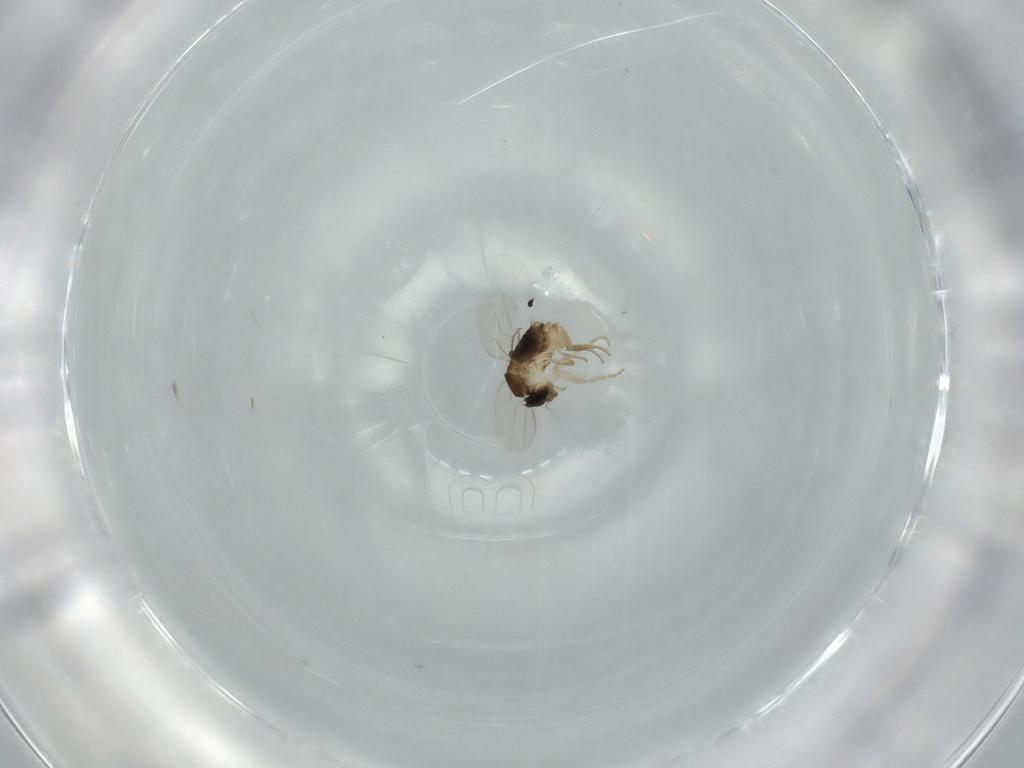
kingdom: Animalia
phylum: Arthropoda
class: Insecta
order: Diptera
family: Phoridae
